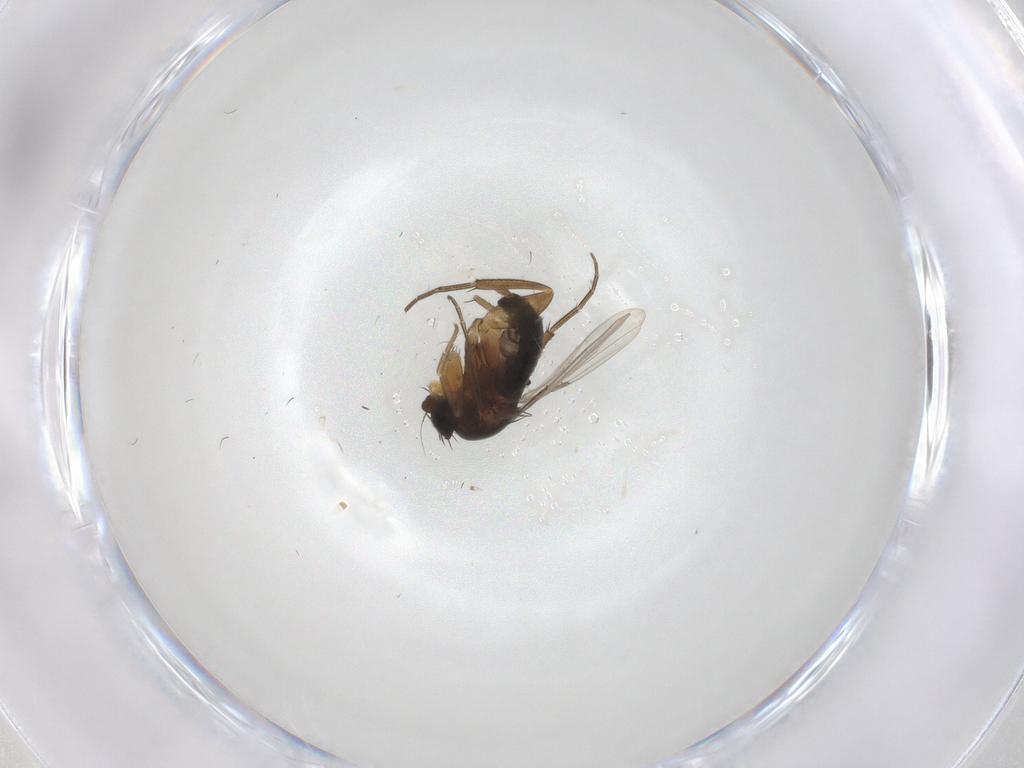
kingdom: Animalia
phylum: Arthropoda
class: Insecta
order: Diptera
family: Phoridae
